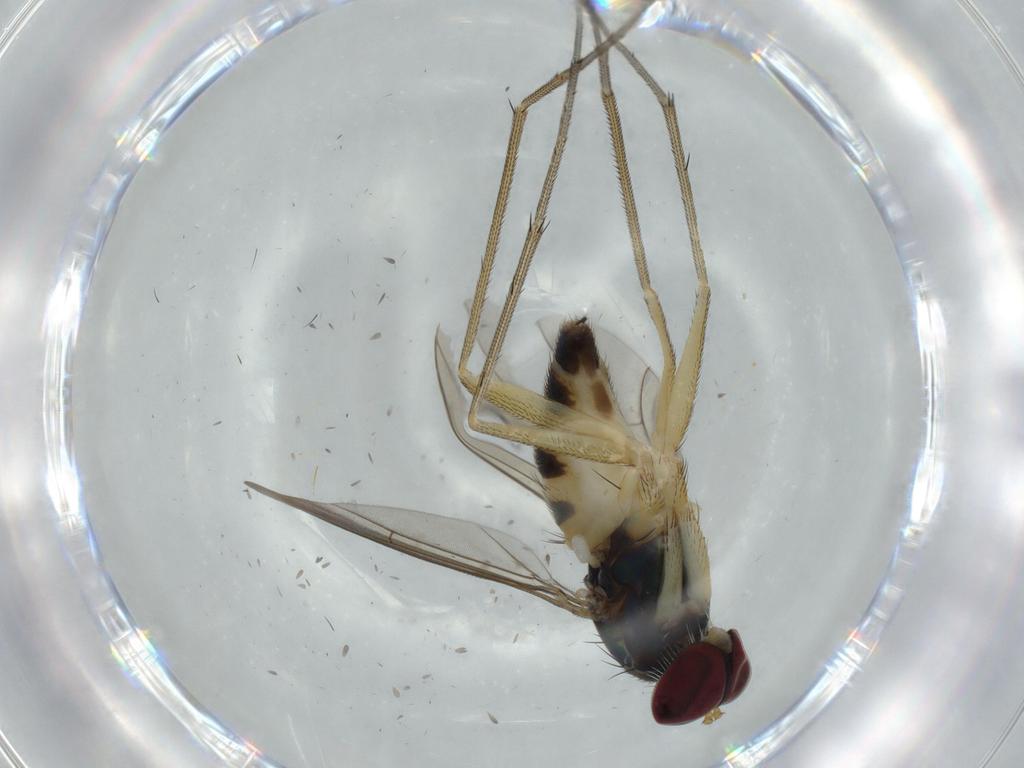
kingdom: Animalia
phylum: Arthropoda
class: Insecta
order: Diptera
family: Dolichopodidae
